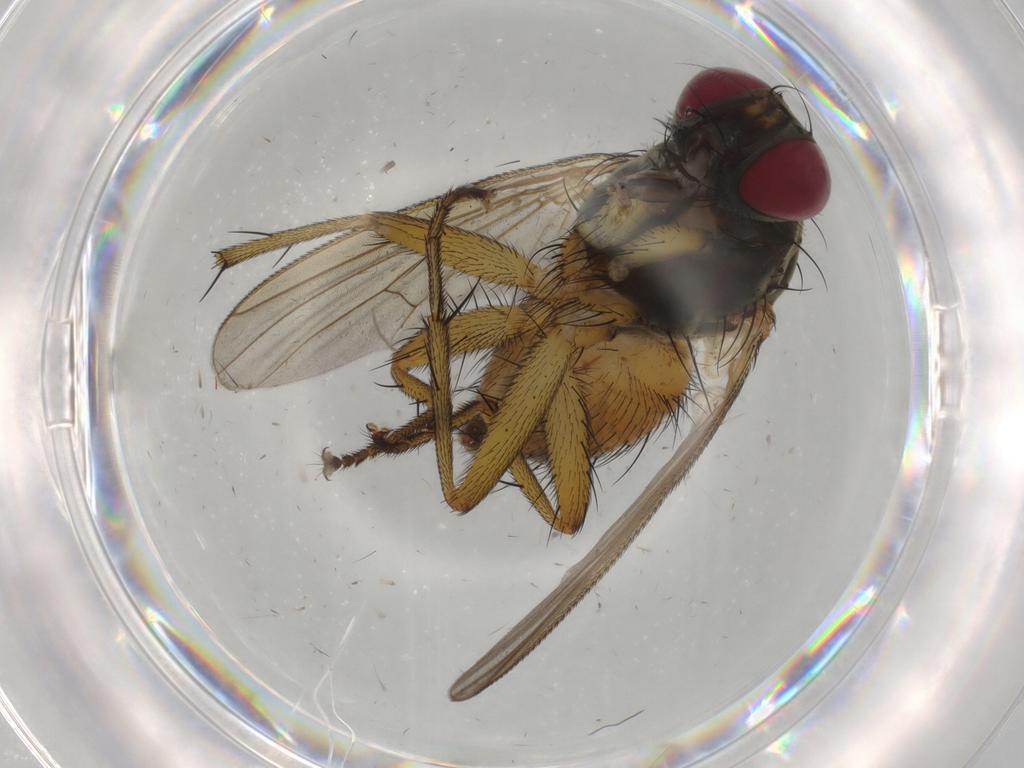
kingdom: Animalia
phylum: Arthropoda
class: Insecta
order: Diptera
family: Muscidae
